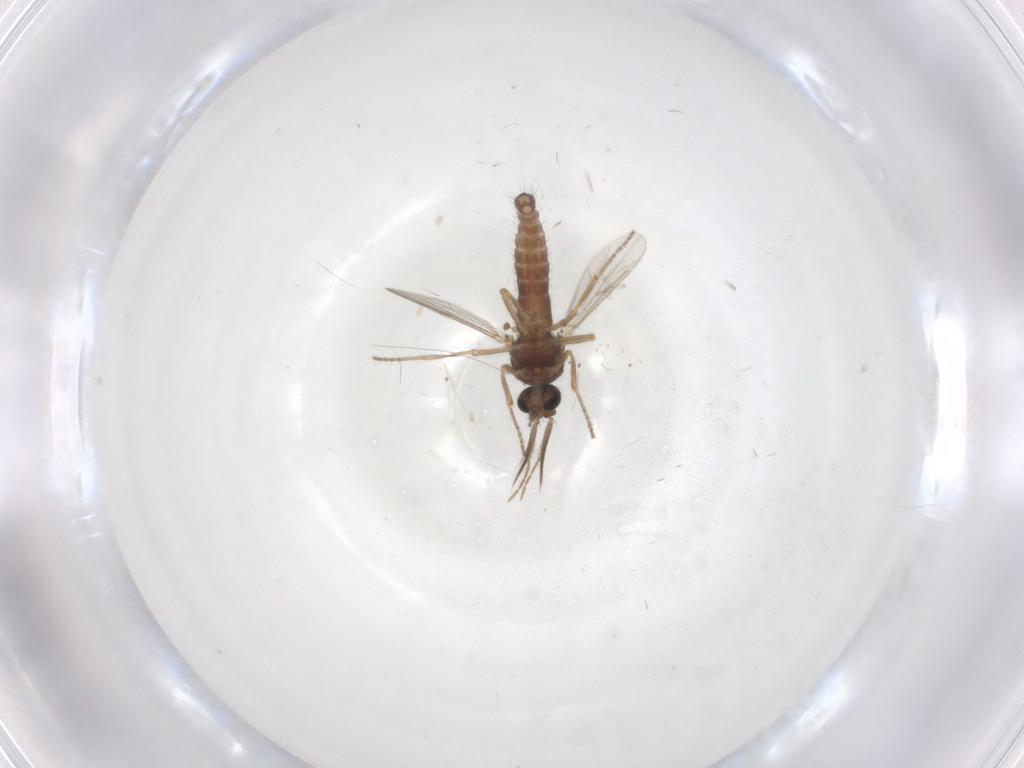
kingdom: Animalia
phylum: Arthropoda
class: Insecta
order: Diptera
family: Ceratopogonidae
